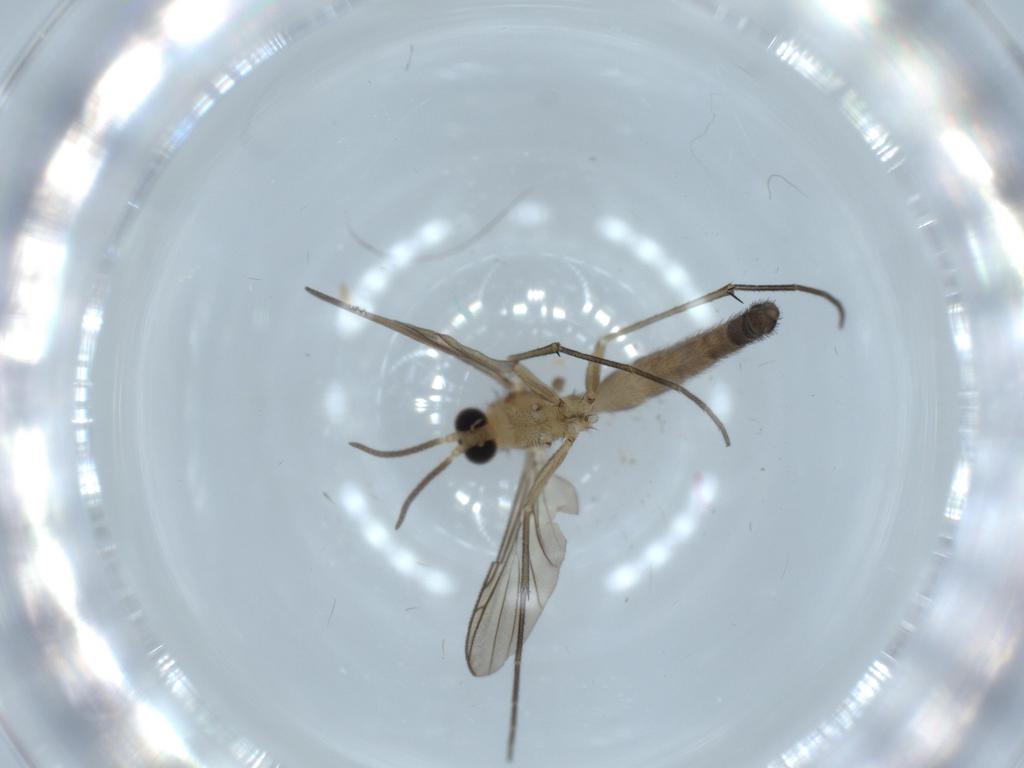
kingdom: Animalia
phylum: Arthropoda
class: Insecta
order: Diptera
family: Keroplatidae
